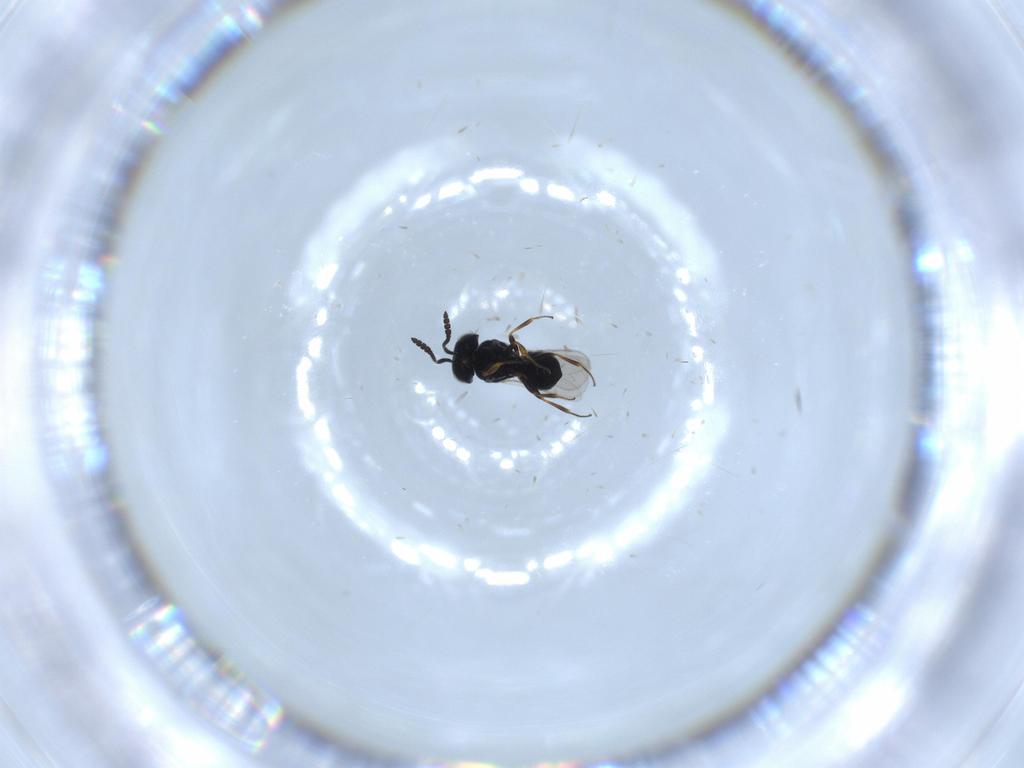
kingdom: Animalia
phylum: Arthropoda
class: Insecta
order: Hymenoptera
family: Scelionidae
